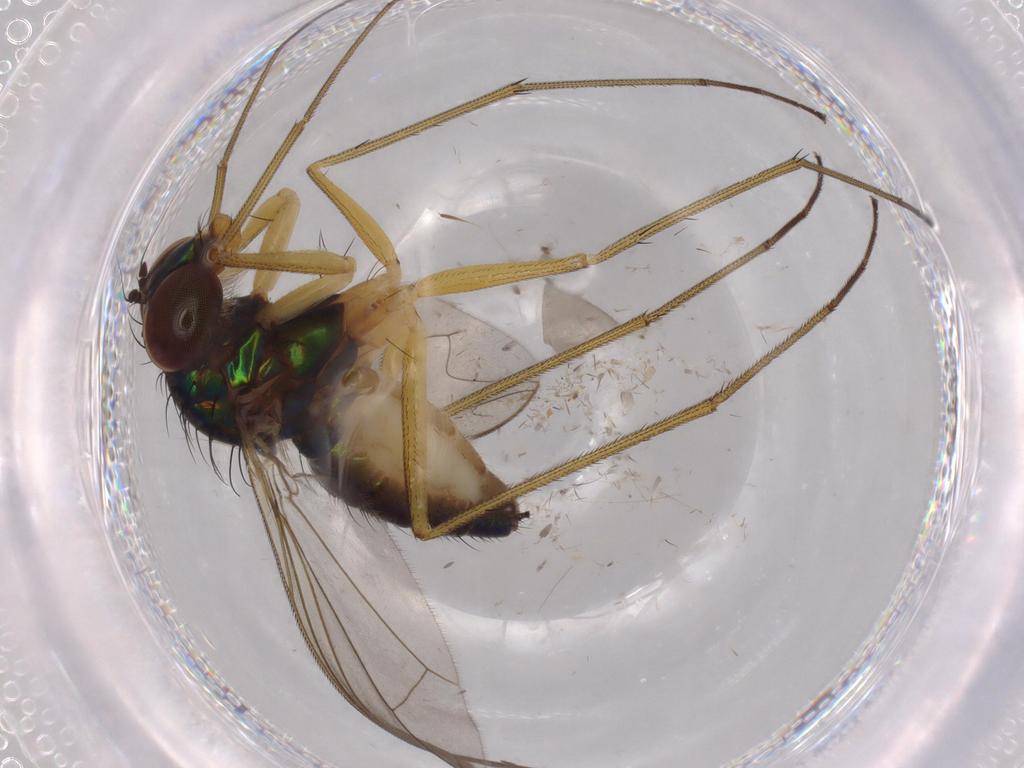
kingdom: Animalia
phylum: Arthropoda
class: Insecta
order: Diptera
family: Dolichopodidae
